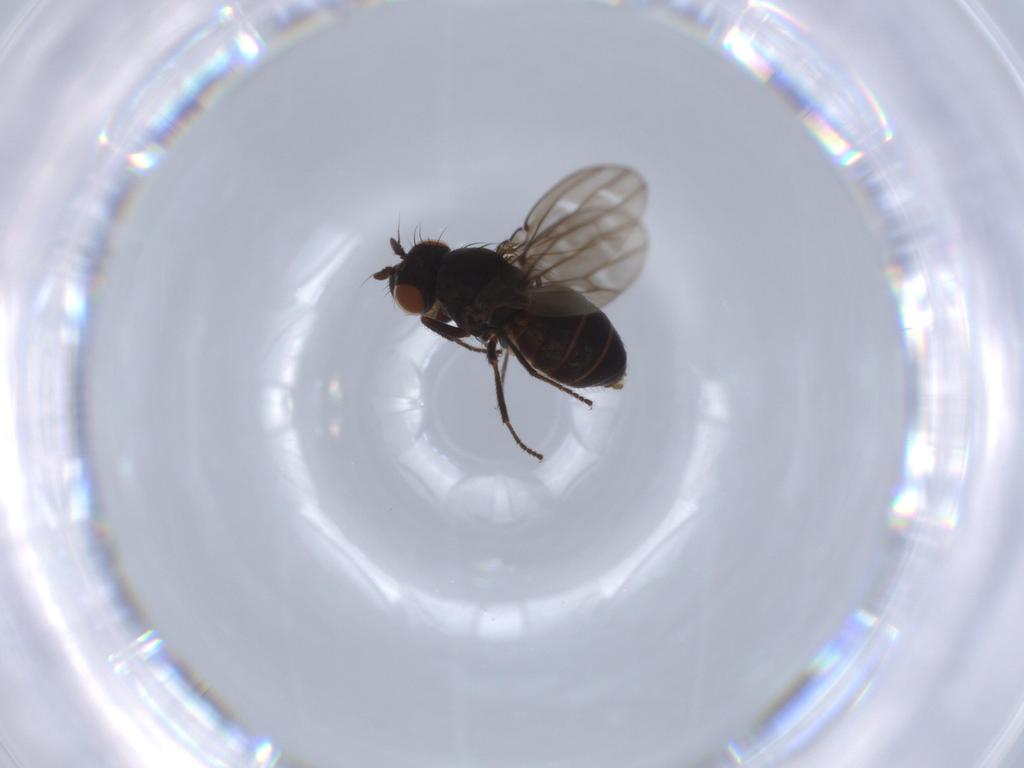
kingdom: Animalia
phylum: Arthropoda
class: Insecta
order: Diptera
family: Ephydridae
